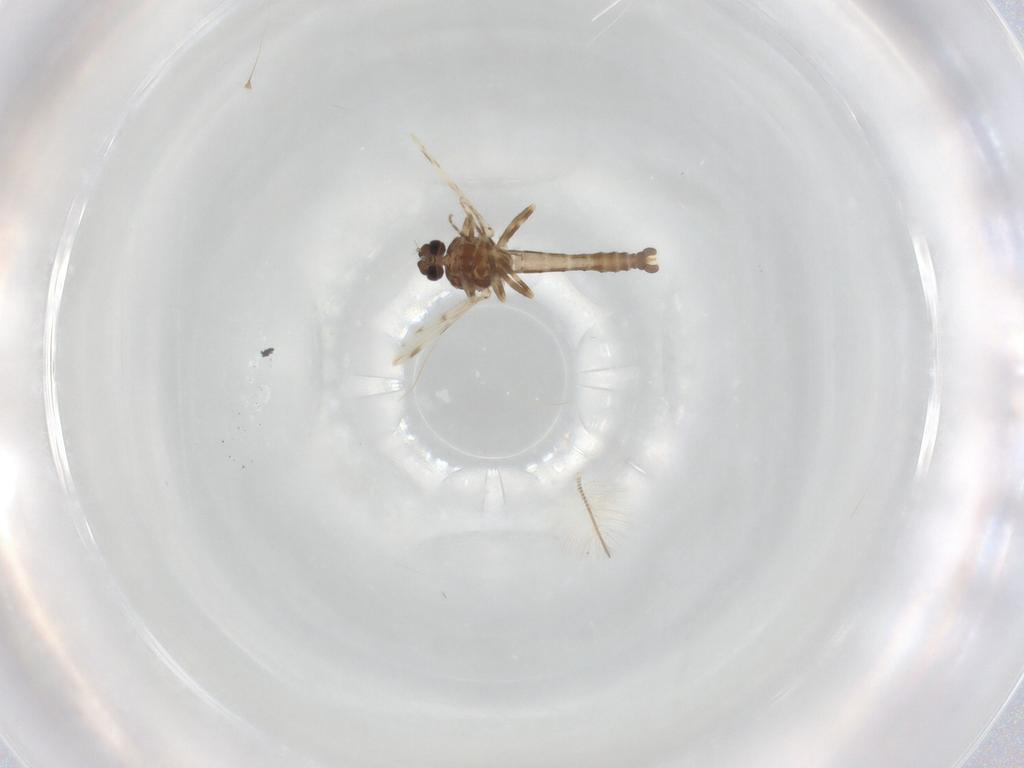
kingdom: Animalia
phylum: Arthropoda
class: Insecta
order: Diptera
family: Ceratopogonidae
